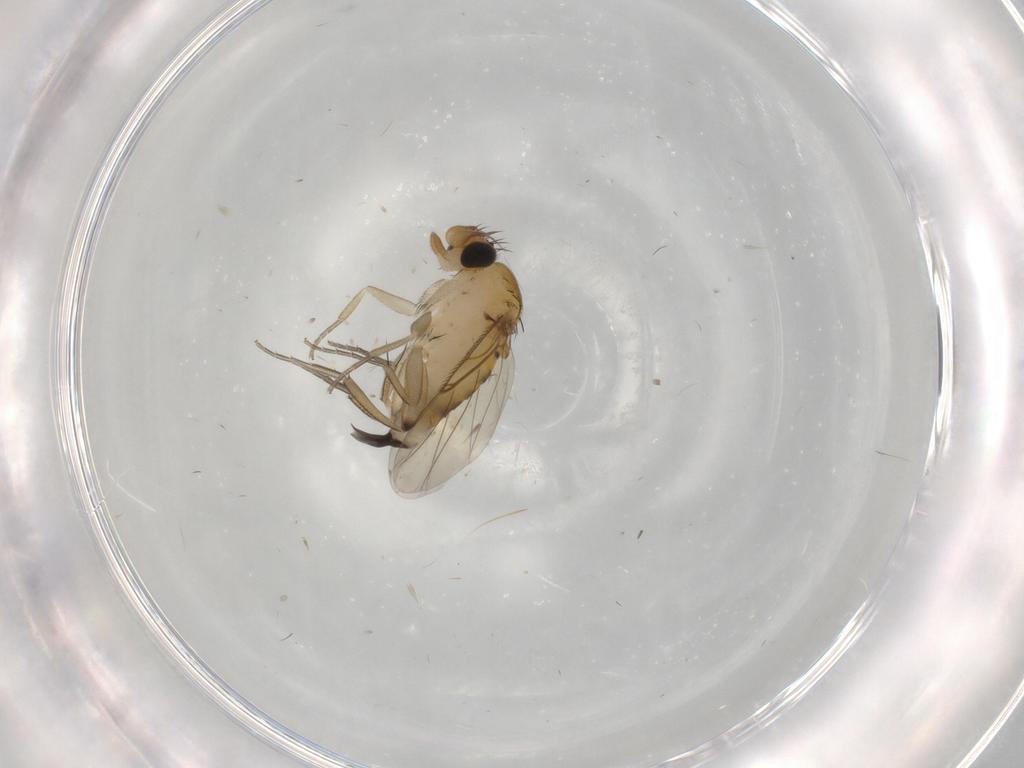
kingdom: Animalia
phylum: Arthropoda
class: Insecta
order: Diptera
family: Phoridae
